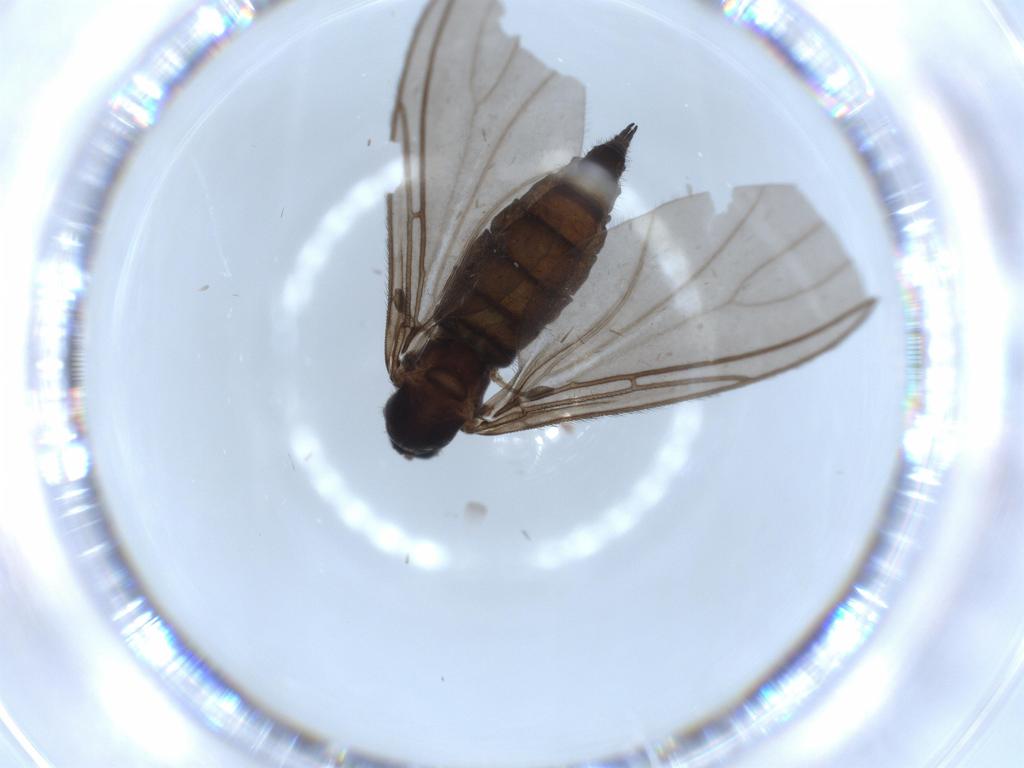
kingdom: Animalia
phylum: Arthropoda
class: Insecta
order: Diptera
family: Sciaridae
